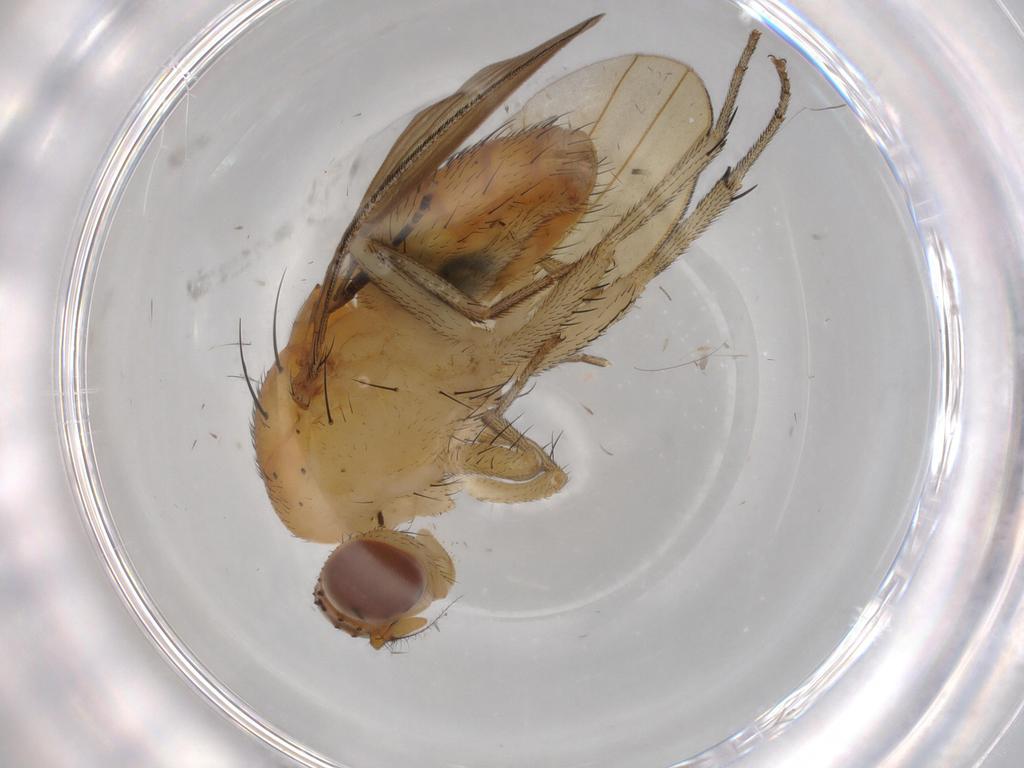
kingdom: Animalia
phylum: Arthropoda
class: Insecta
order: Diptera
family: Lauxaniidae
